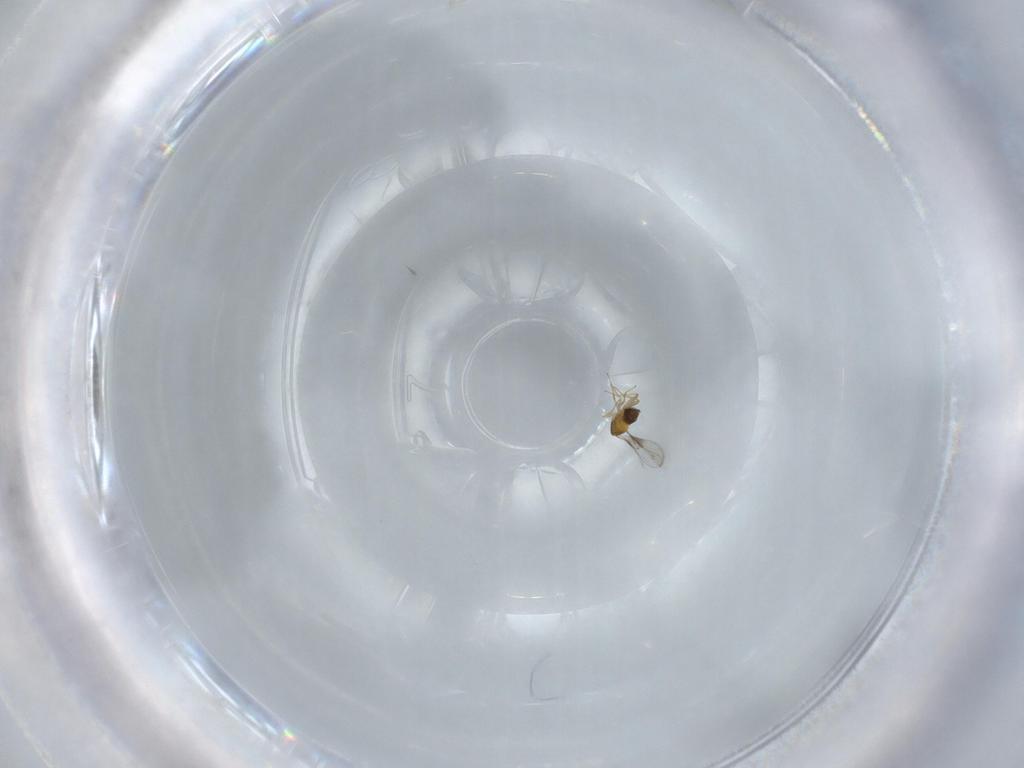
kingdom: Animalia
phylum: Arthropoda
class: Insecta
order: Hymenoptera
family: Trichogrammatidae
